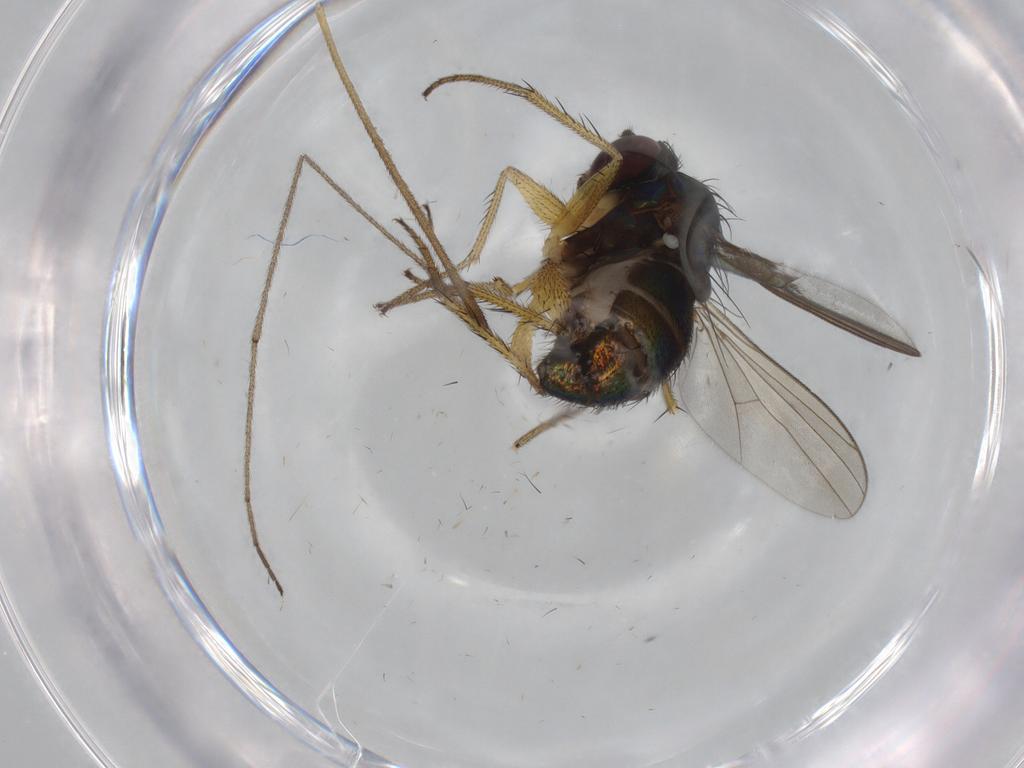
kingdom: Animalia
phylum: Arthropoda
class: Insecta
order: Diptera
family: Dolichopodidae
